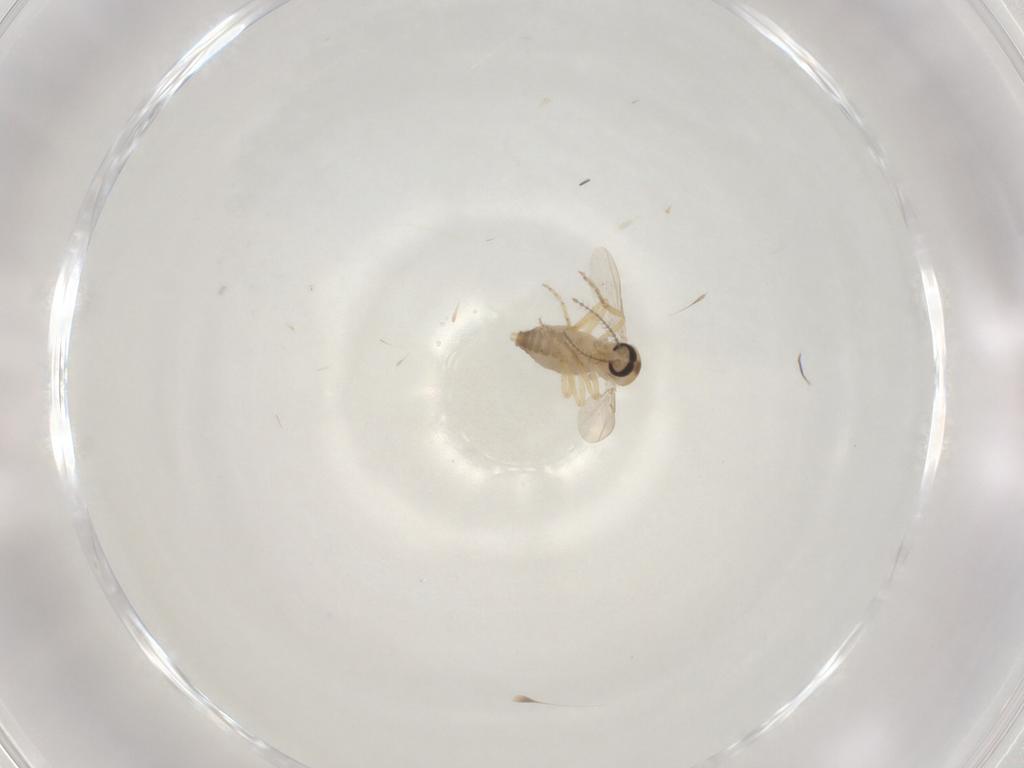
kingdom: Animalia
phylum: Arthropoda
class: Insecta
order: Diptera
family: Ceratopogonidae
